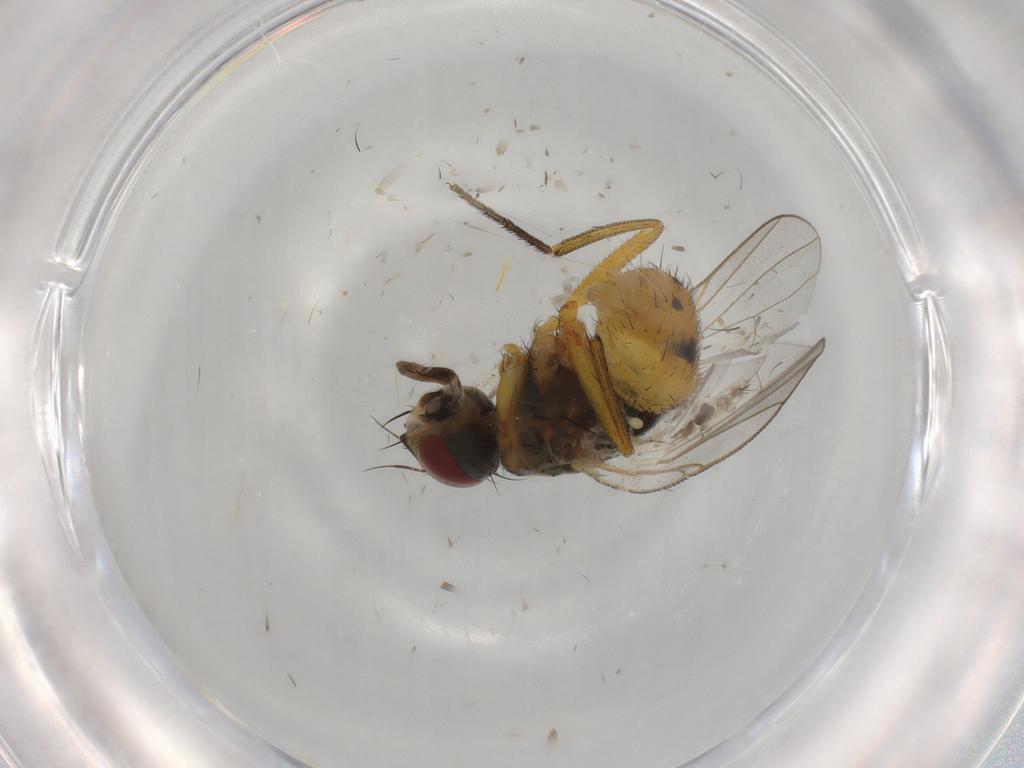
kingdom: Animalia
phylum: Arthropoda
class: Insecta
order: Diptera
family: Muscidae
